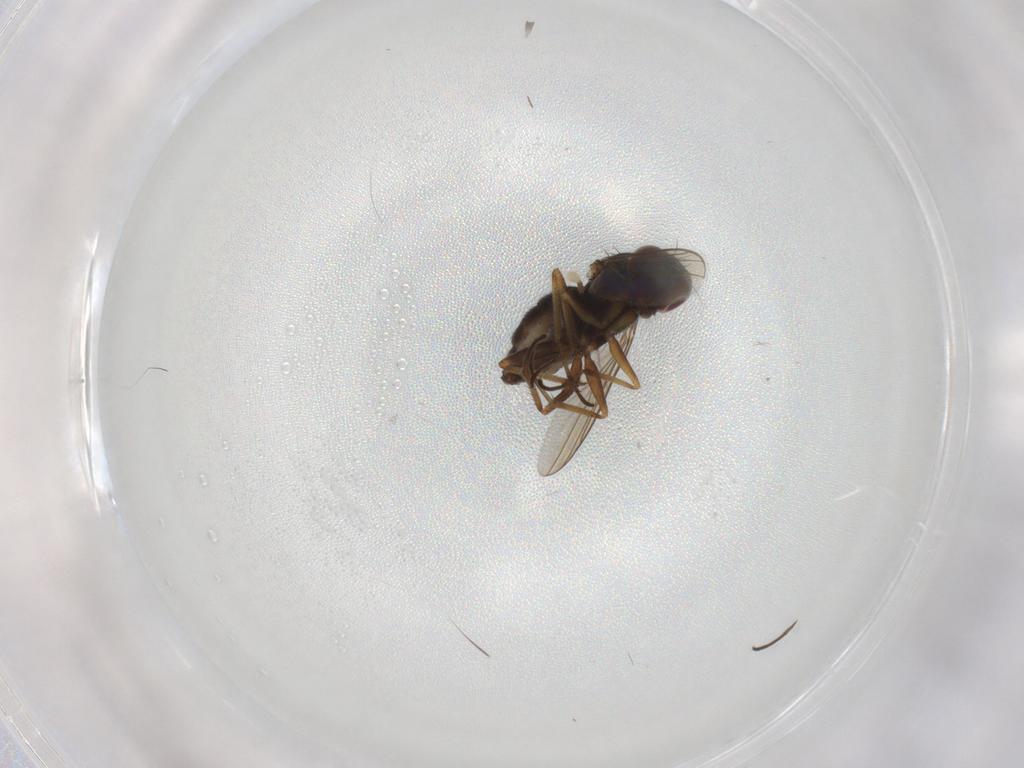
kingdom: Animalia
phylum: Arthropoda
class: Insecta
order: Diptera
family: Dolichopodidae
